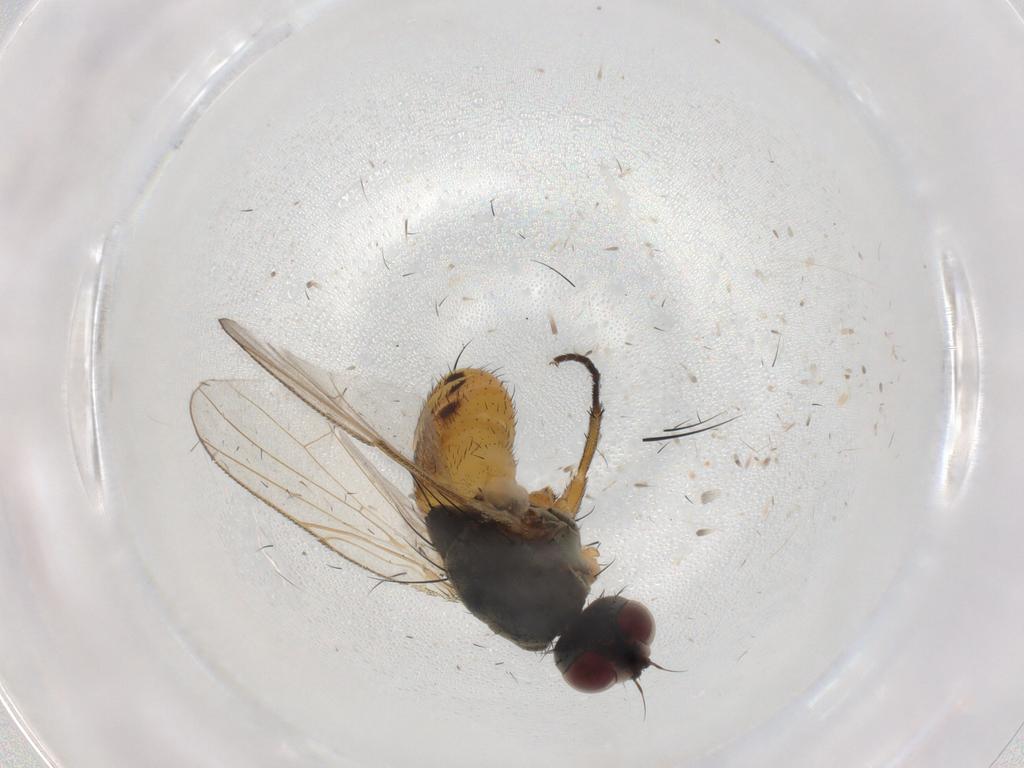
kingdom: Animalia
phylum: Arthropoda
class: Insecta
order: Diptera
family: Muscidae
